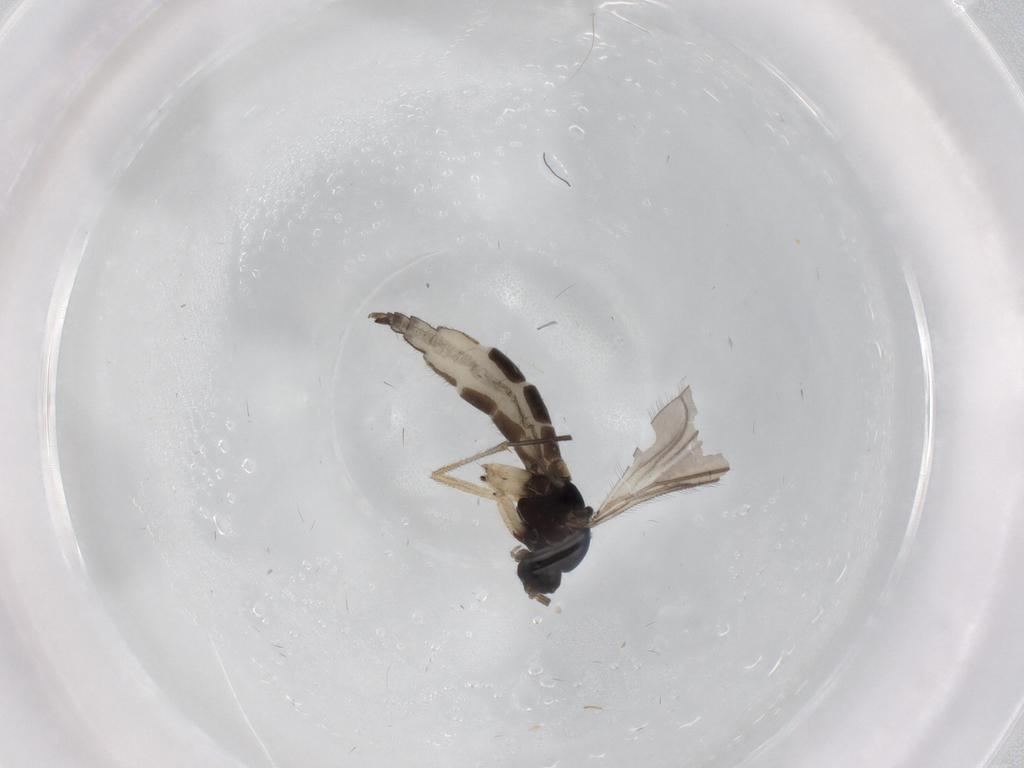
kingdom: Animalia
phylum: Arthropoda
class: Insecta
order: Diptera
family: Sciaridae
